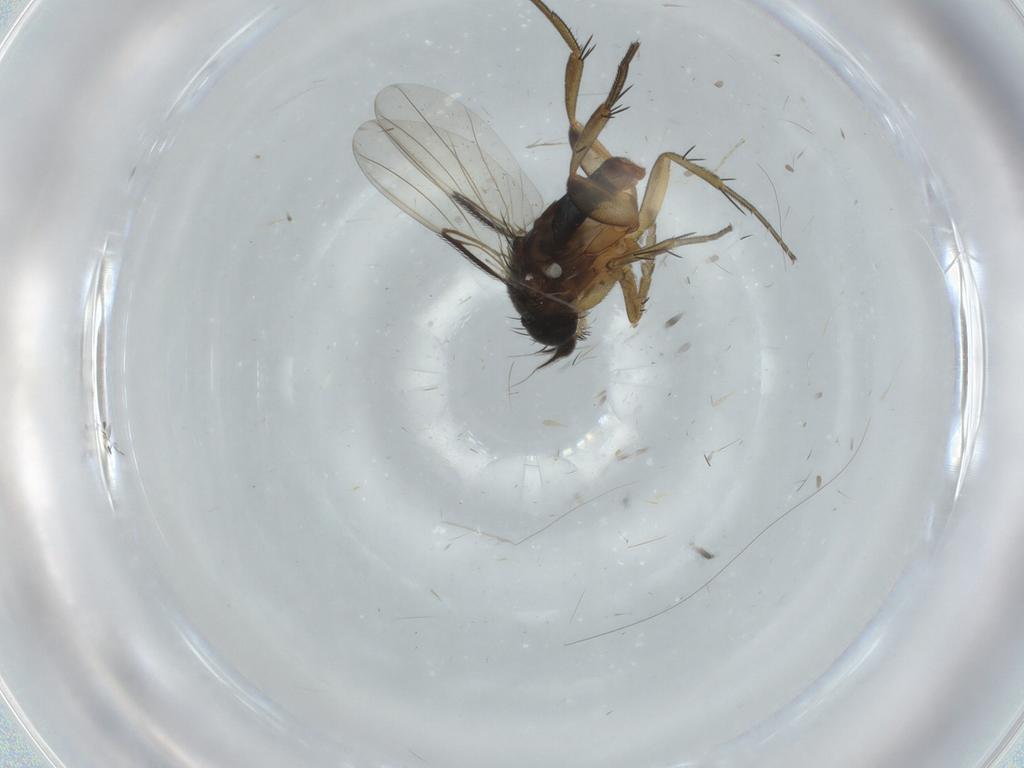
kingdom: Animalia
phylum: Arthropoda
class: Insecta
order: Diptera
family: Phoridae
